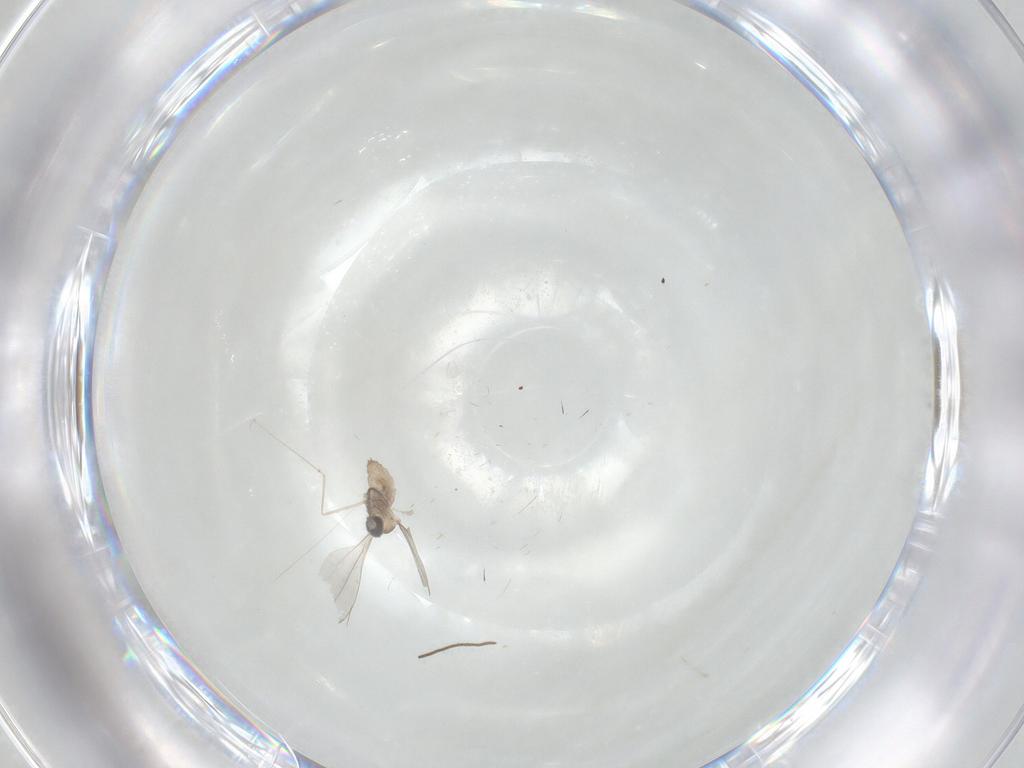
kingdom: Animalia
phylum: Arthropoda
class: Insecta
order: Diptera
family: Limoniidae
